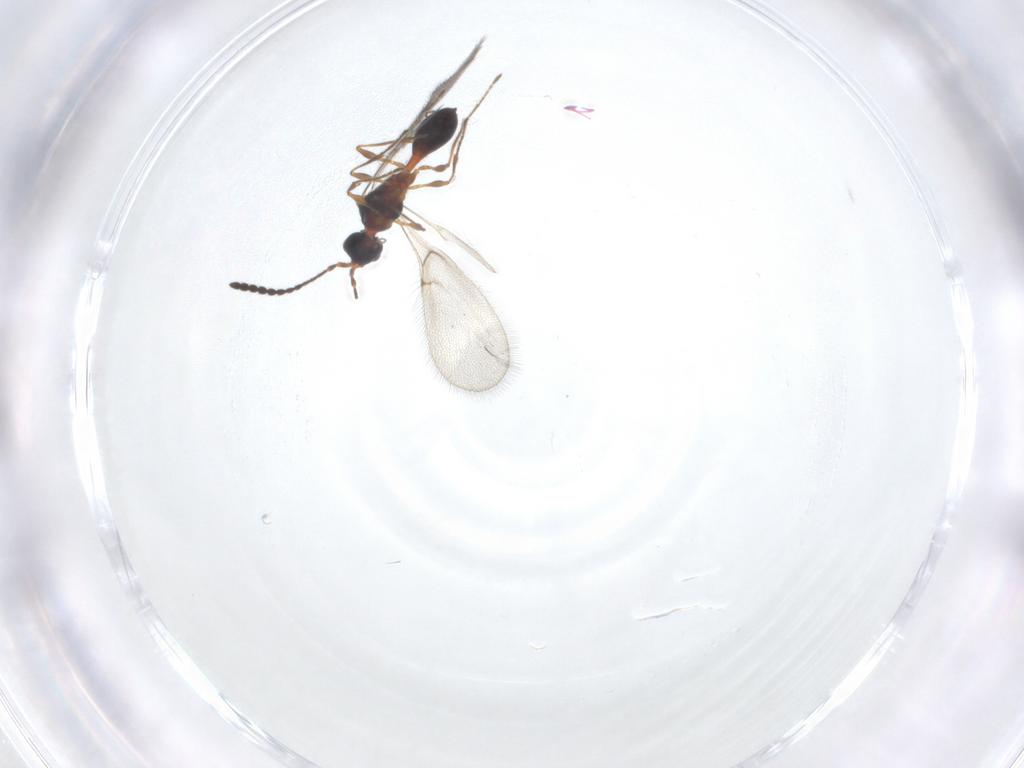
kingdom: Animalia
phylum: Arthropoda
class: Insecta
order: Hymenoptera
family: Diapriidae
